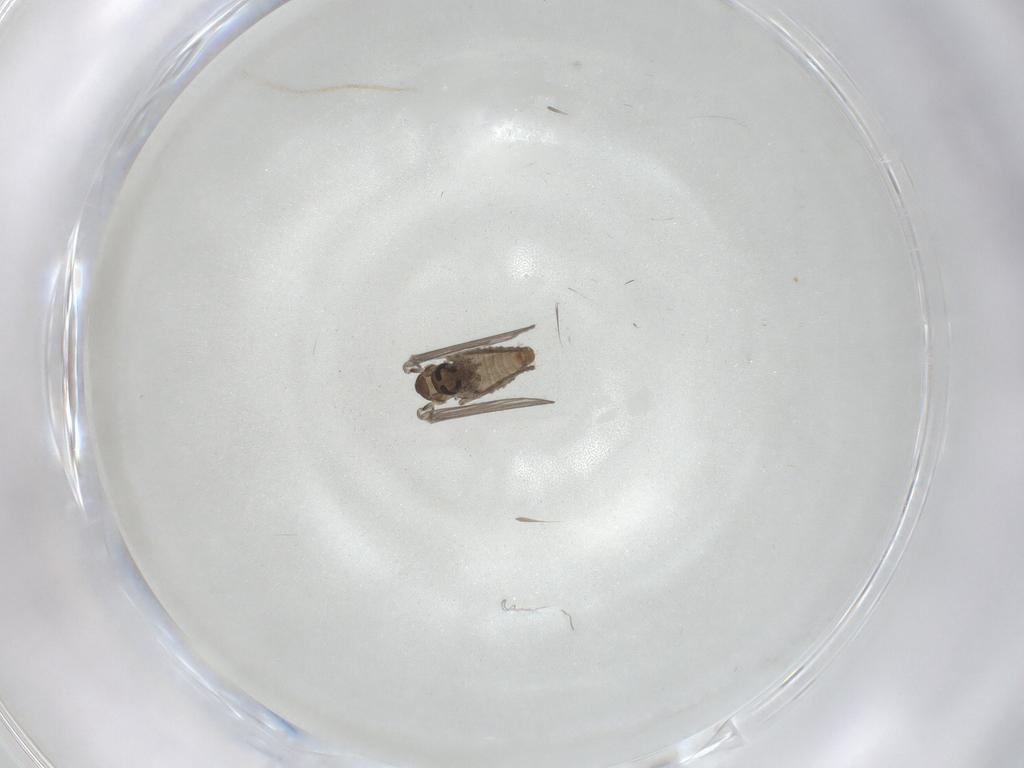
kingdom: Animalia
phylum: Arthropoda
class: Insecta
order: Diptera
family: Psychodidae
